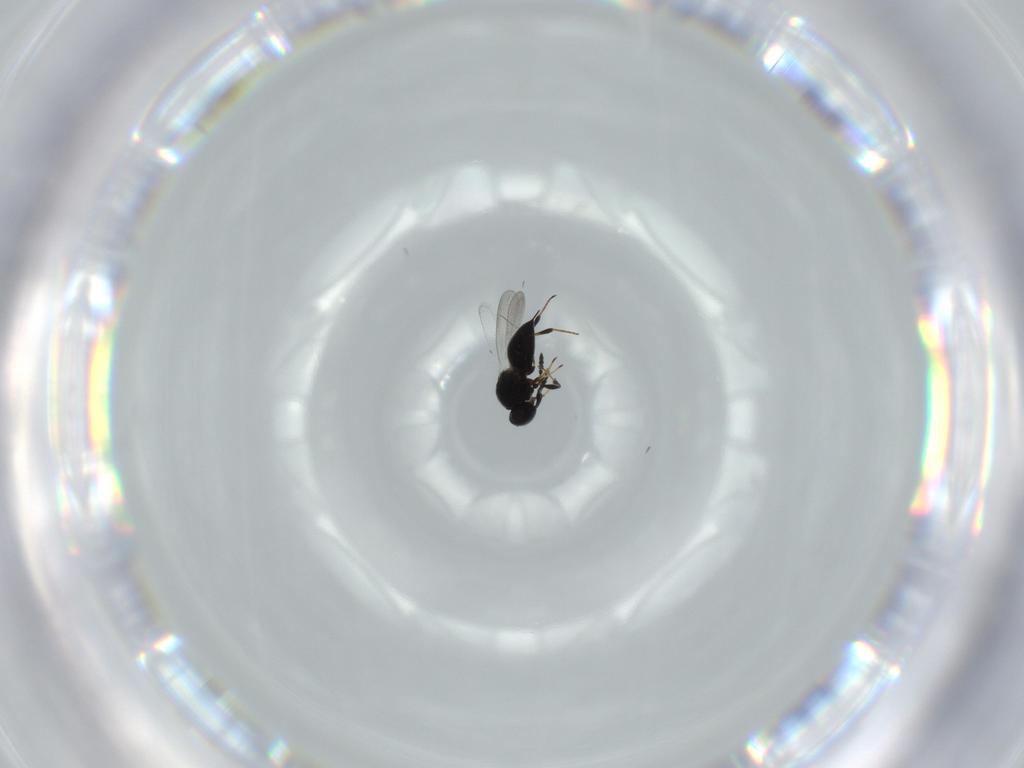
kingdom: Animalia
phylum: Arthropoda
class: Insecta
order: Hymenoptera
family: Platygastridae
